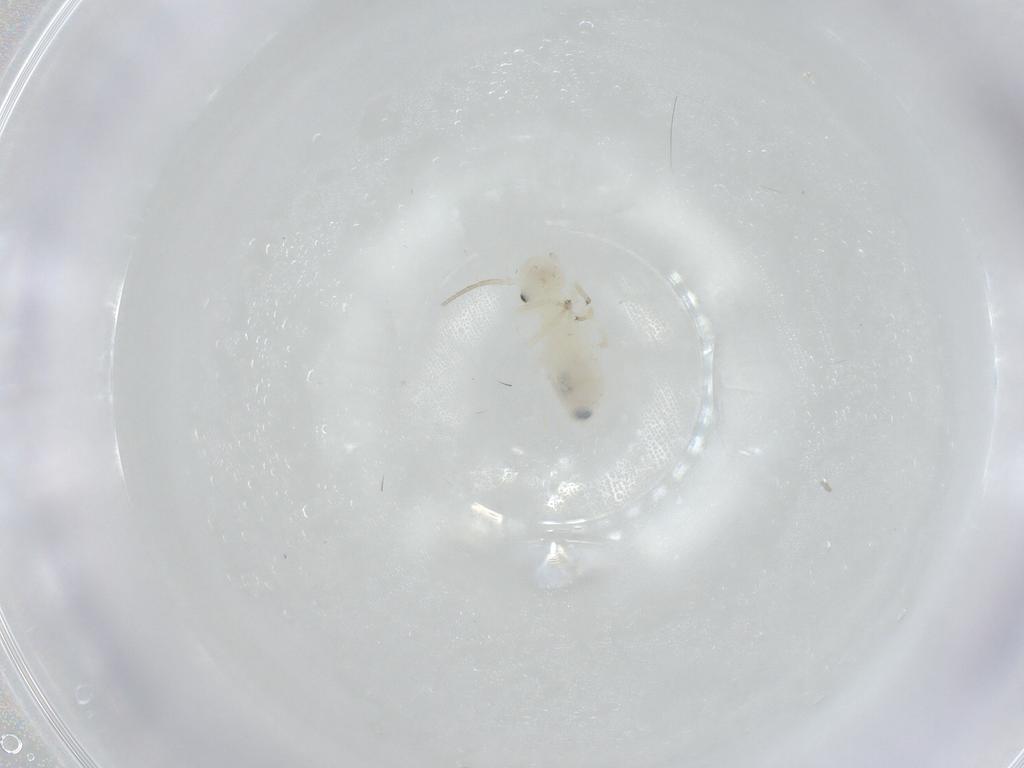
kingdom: Animalia
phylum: Arthropoda
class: Insecta
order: Psocodea
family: Caeciliusidae
